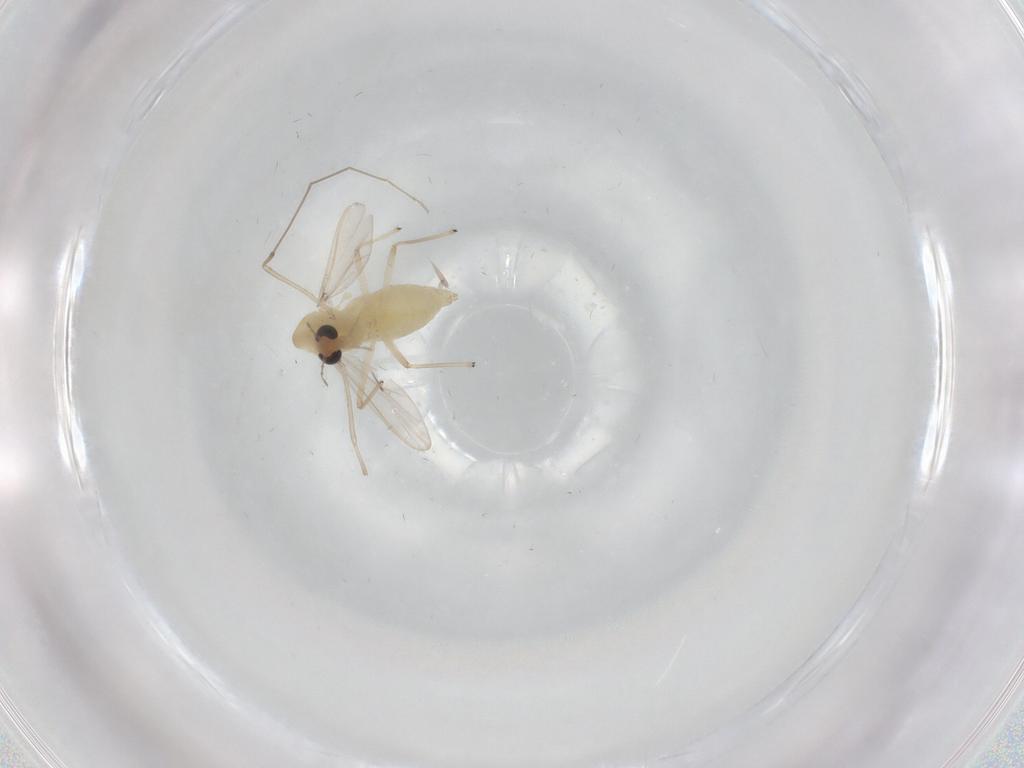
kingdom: Animalia
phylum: Arthropoda
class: Insecta
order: Diptera
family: Chironomidae
